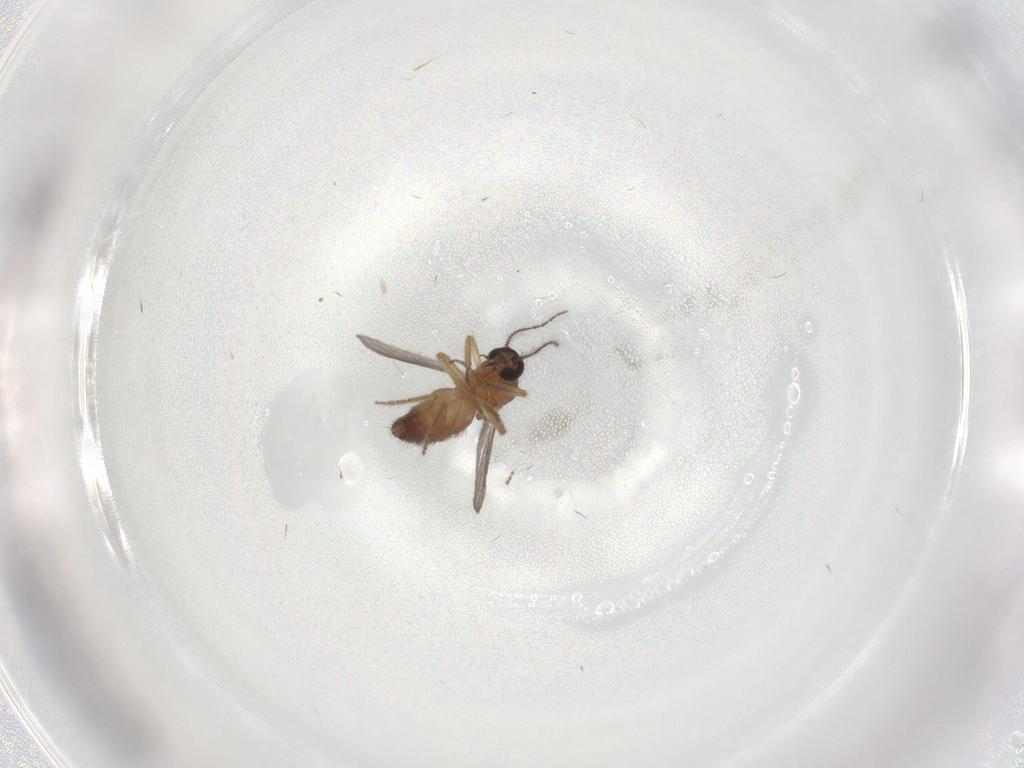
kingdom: Animalia
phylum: Arthropoda
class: Insecta
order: Diptera
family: Ceratopogonidae
